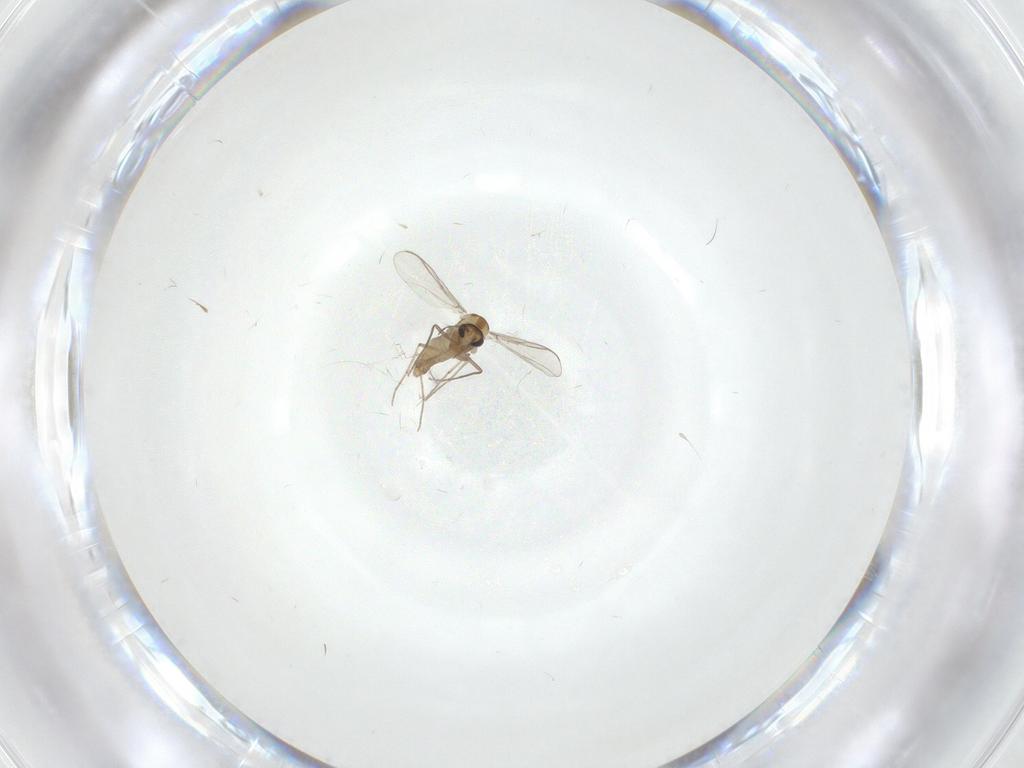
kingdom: Animalia
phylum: Arthropoda
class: Insecta
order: Diptera
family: Chironomidae
